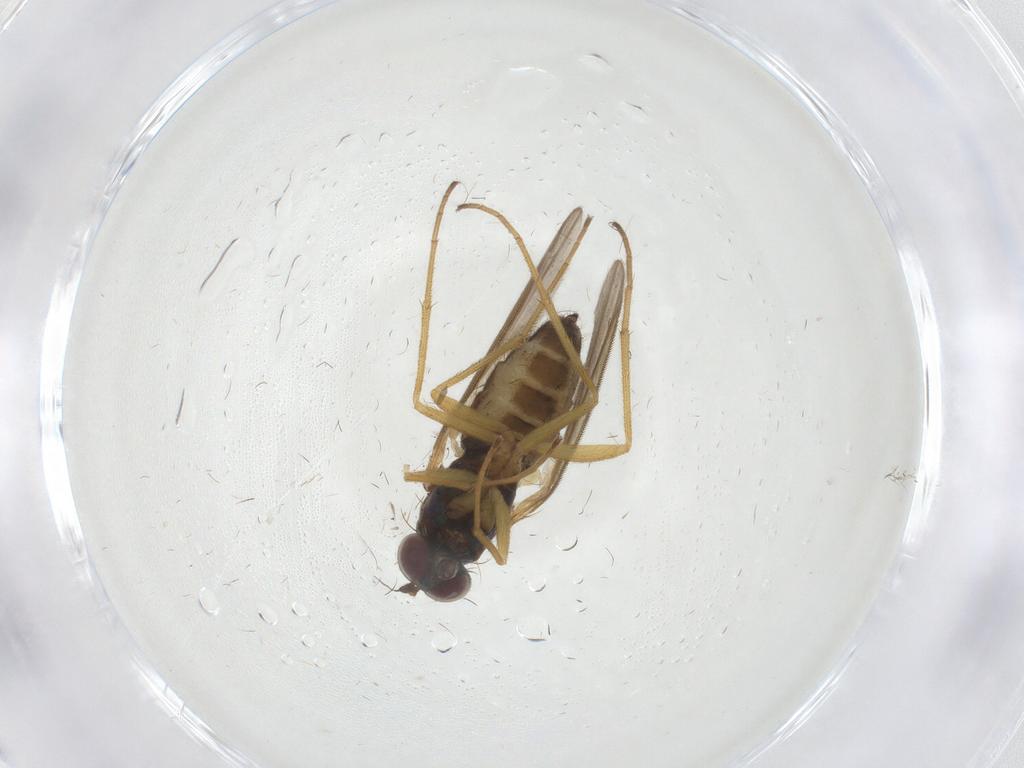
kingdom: Animalia
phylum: Arthropoda
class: Insecta
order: Diptera
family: Dolichopodidae
